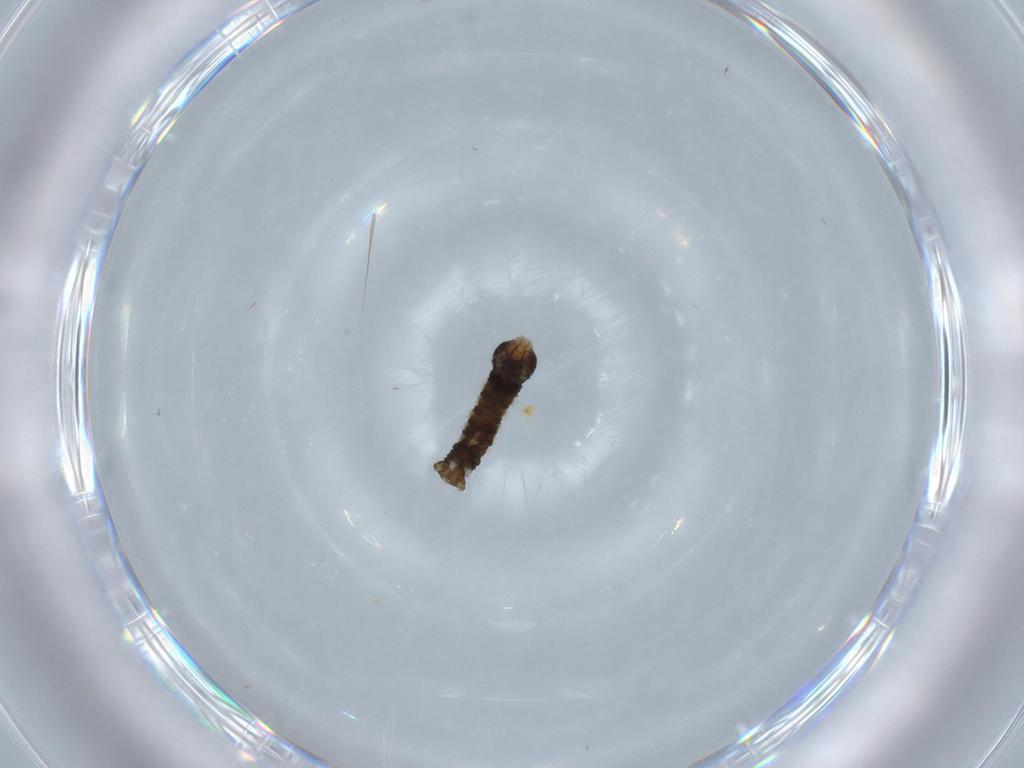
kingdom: Animalia
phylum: Arthropoda
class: Insecta
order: Lepidoptera
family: Geometridae
